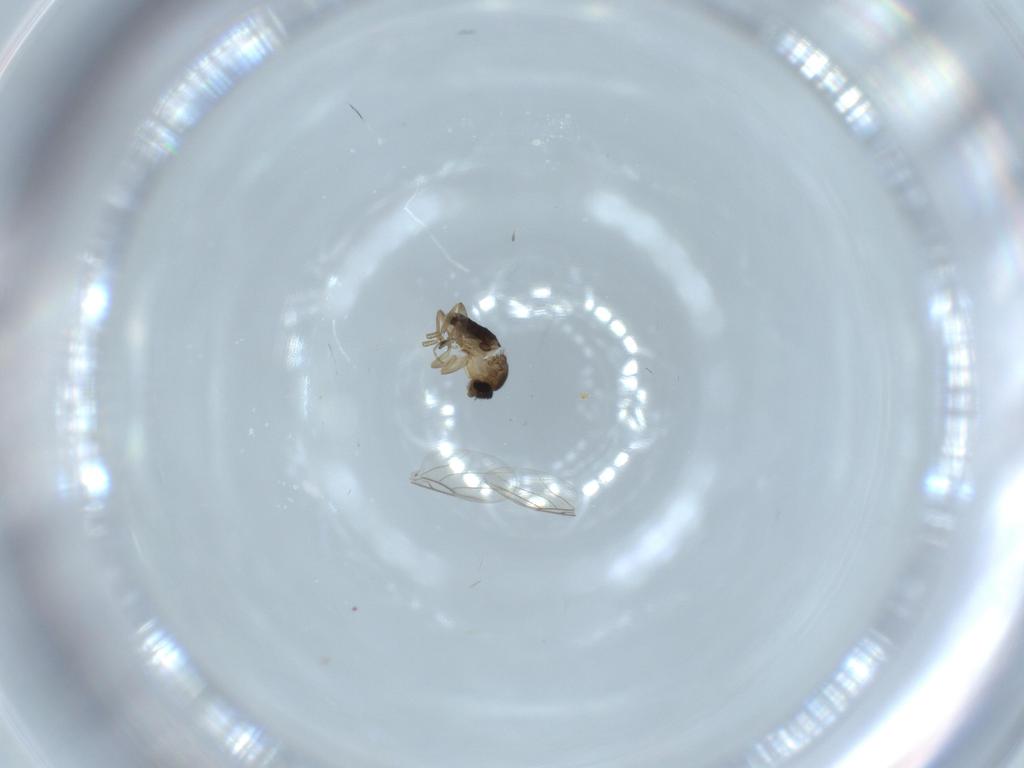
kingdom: Animalia
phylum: Arthropoda
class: Insecta
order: Diptera
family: Phoridae
